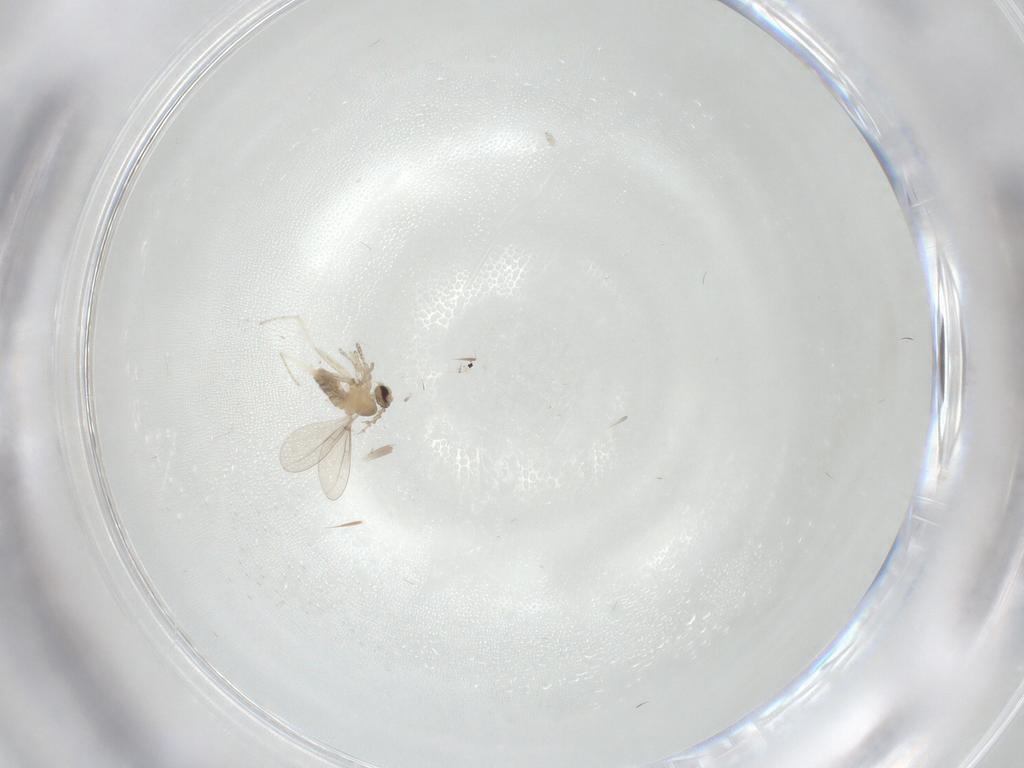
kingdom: Animalia
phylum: Arthropoda
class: Insecta
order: Diptera
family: Cecidomyiidae
